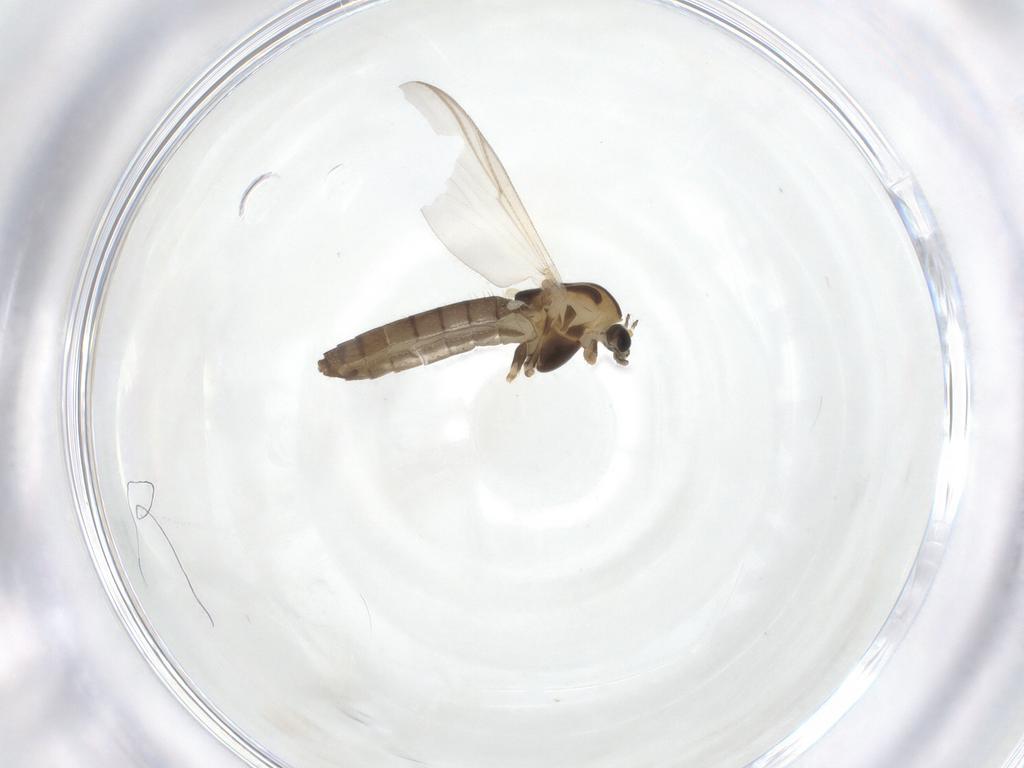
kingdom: Animalia
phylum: Arthropoda
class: Insecta
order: Diptera
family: Chironomidae
